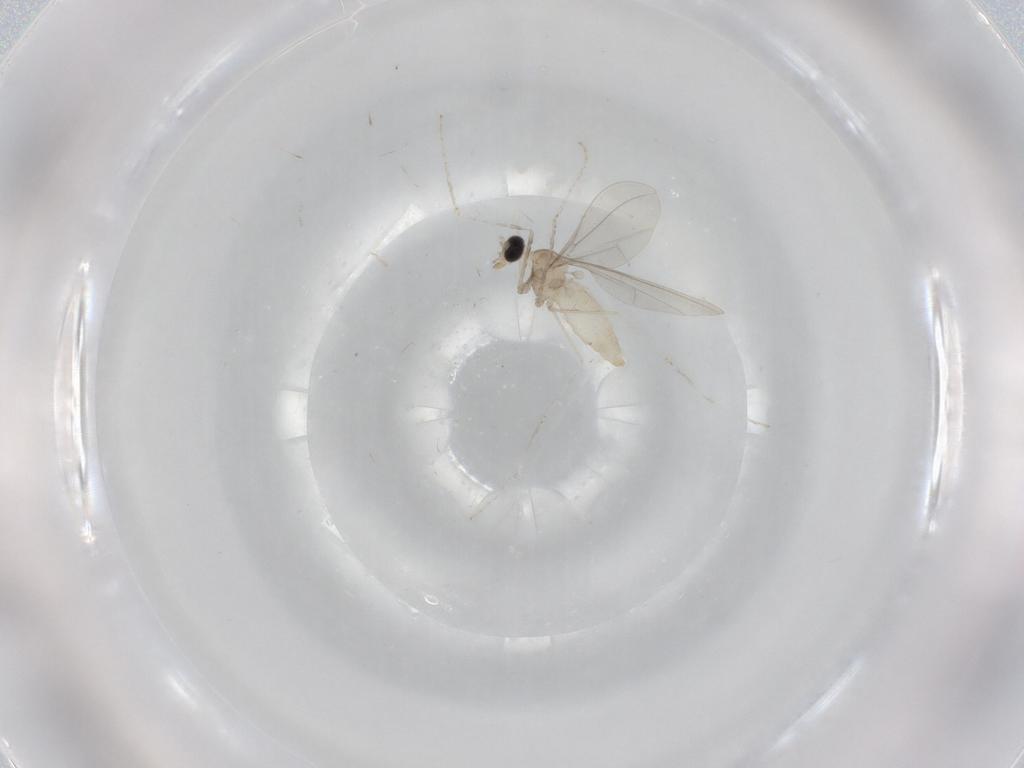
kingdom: Animalia
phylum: Arthropoda
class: Insecta
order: Diptera
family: Cecidomyiidae
